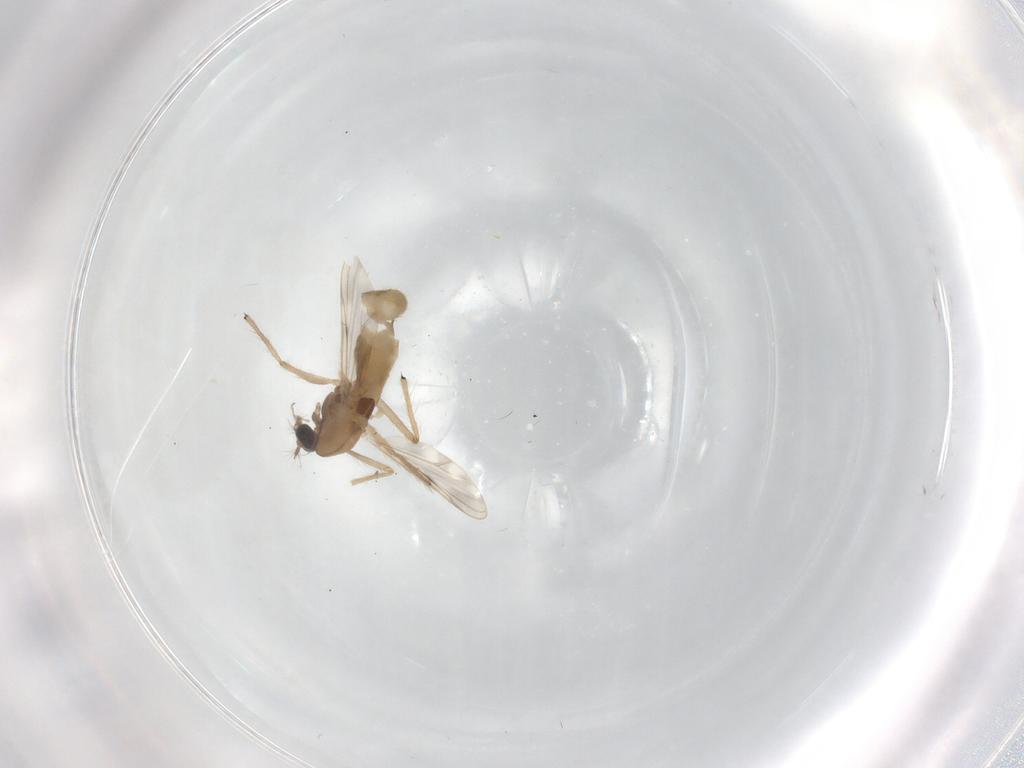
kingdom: Animalia
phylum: Arthropoda
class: Insecta
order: Diptera
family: Chironomidae
